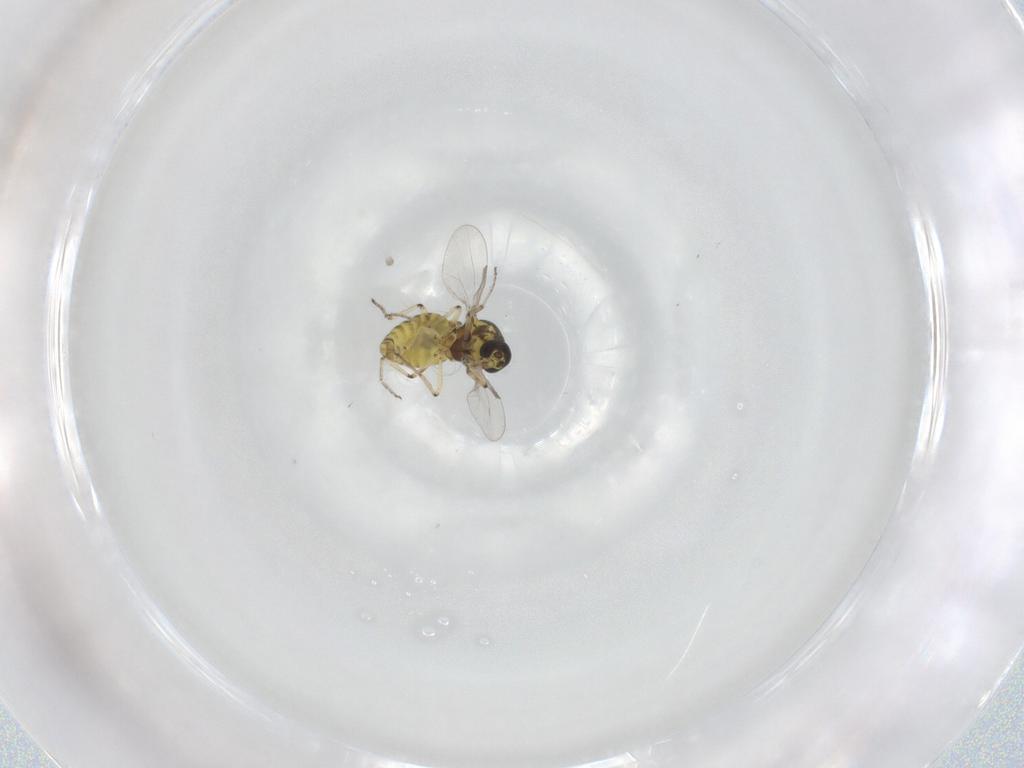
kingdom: Animalia
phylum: Arthropoda
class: Insecta
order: Diptera
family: Ceratopogonidae
